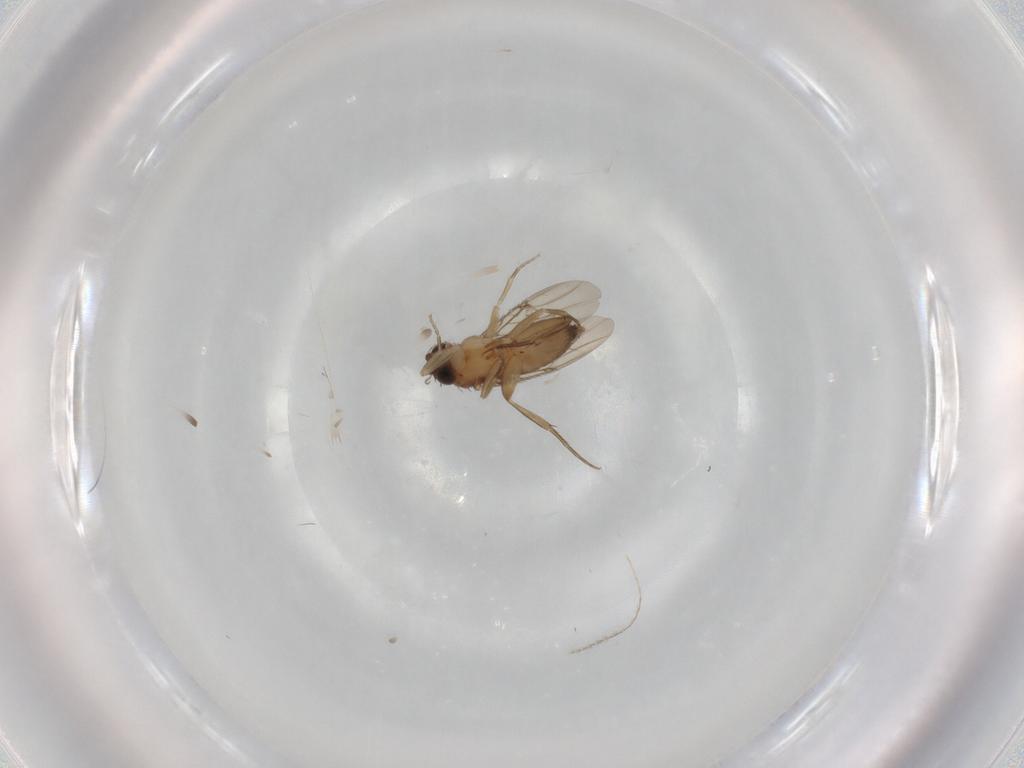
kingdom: Animalia
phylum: Arthropoda
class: Insecta
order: Diptera
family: Phoridae
